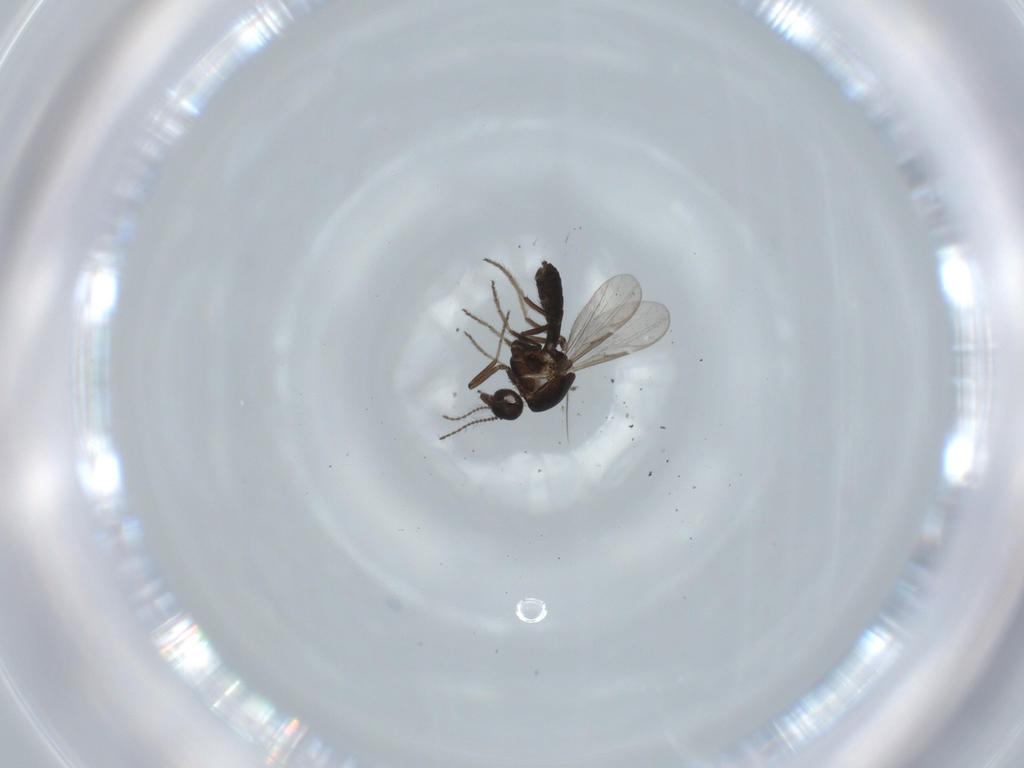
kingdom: Animalia
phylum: Arthropoda
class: Insecta
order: Diptera
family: Ceratopogonidae
